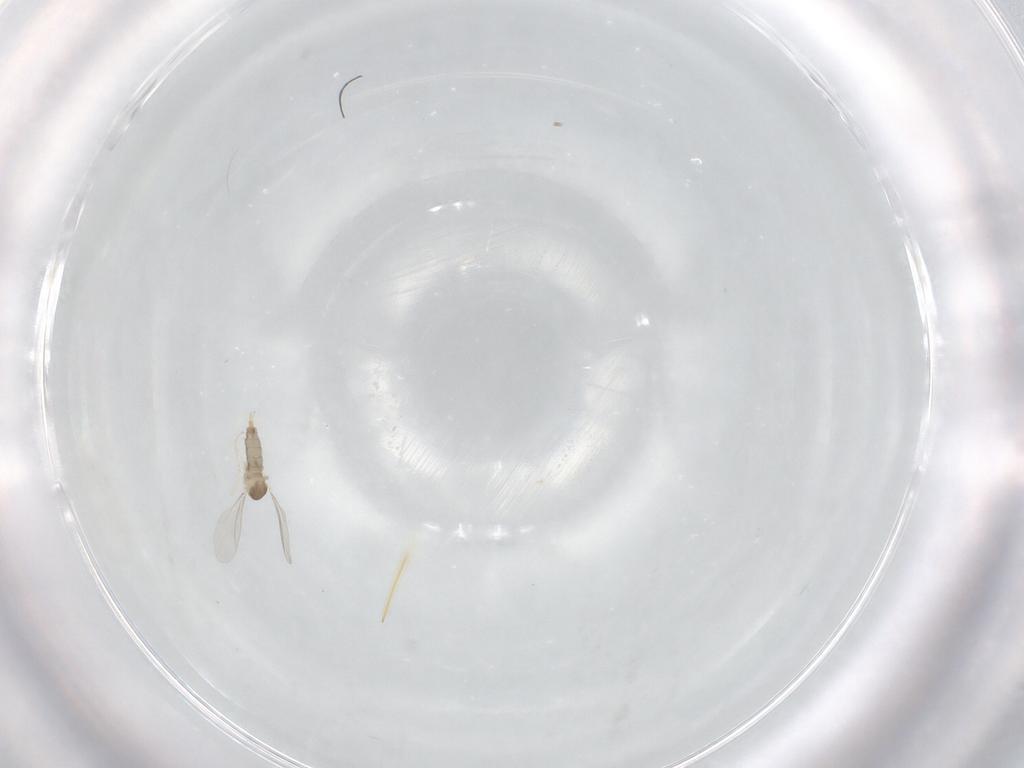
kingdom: Animalia
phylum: Arthropoda
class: Insecta
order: Diptera
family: Cecidomyiidae
